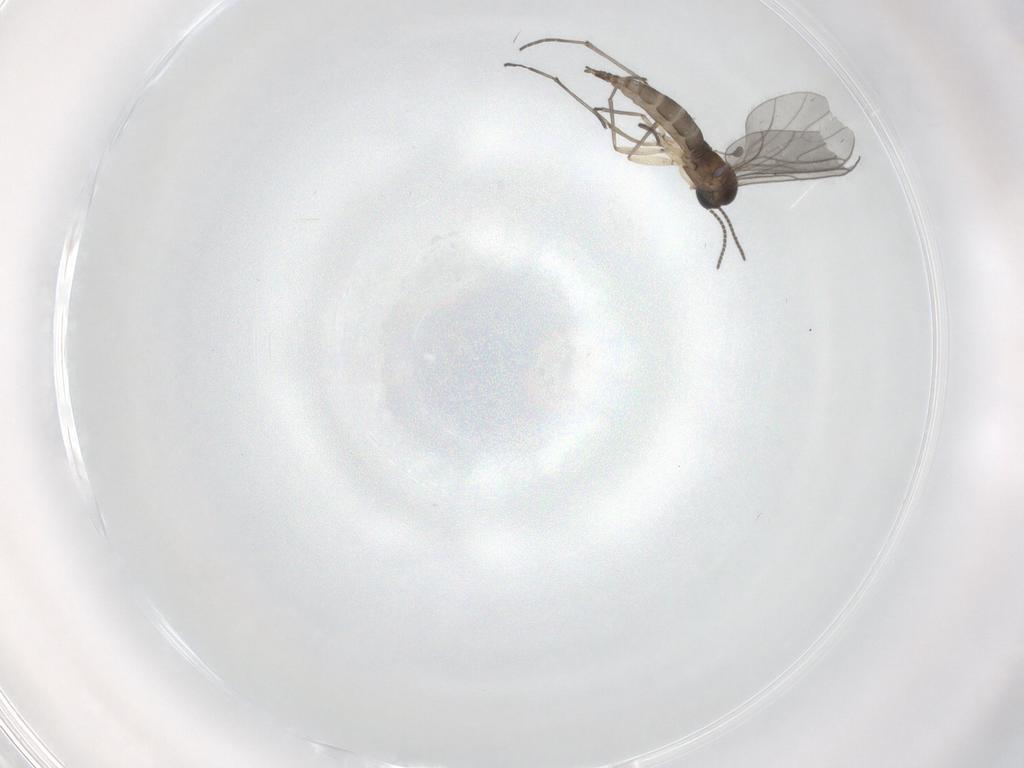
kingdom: Animalia
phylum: Arthropoda
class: Insecta
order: Diptera
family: Sciaridae
